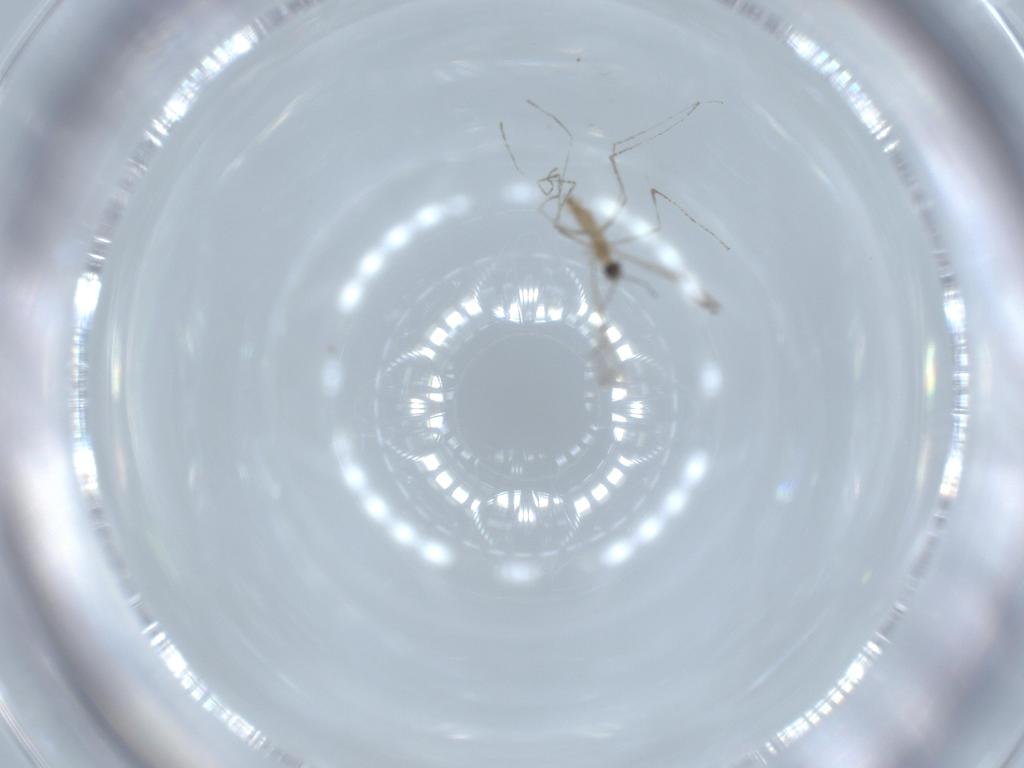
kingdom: Animalia
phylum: Arthropoda
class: Insecta
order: Diptera
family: Cecidomyiidae
